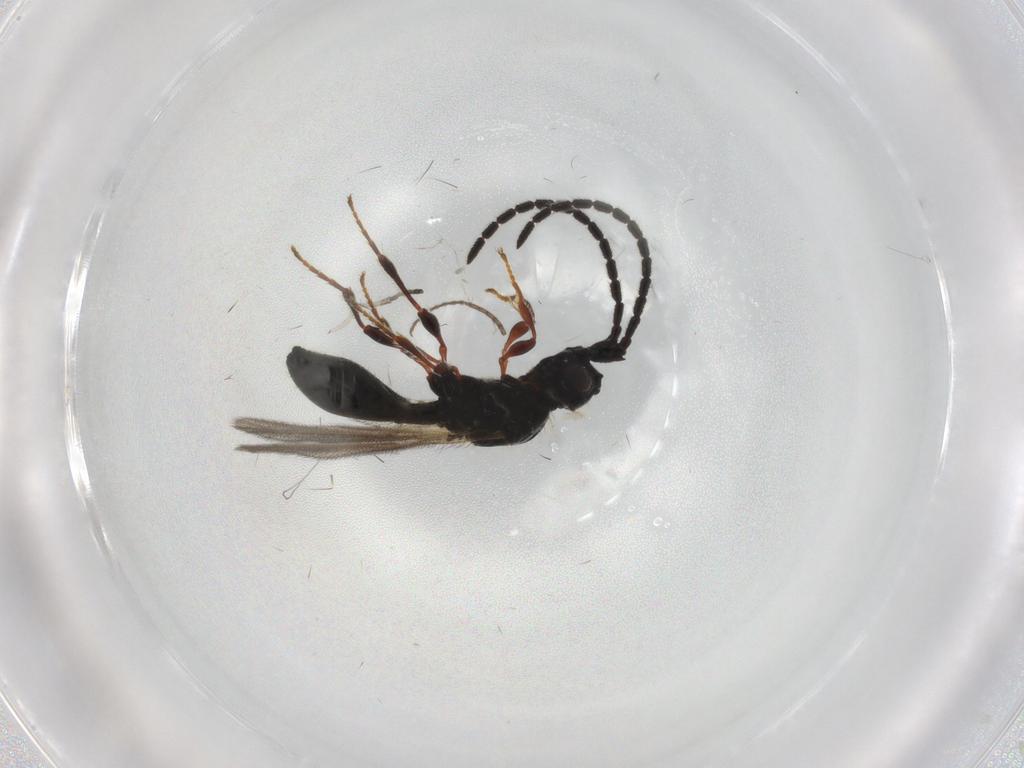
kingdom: Animalia
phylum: Arthropoda
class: Insecta
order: Hymenoptera
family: Diapriidae
